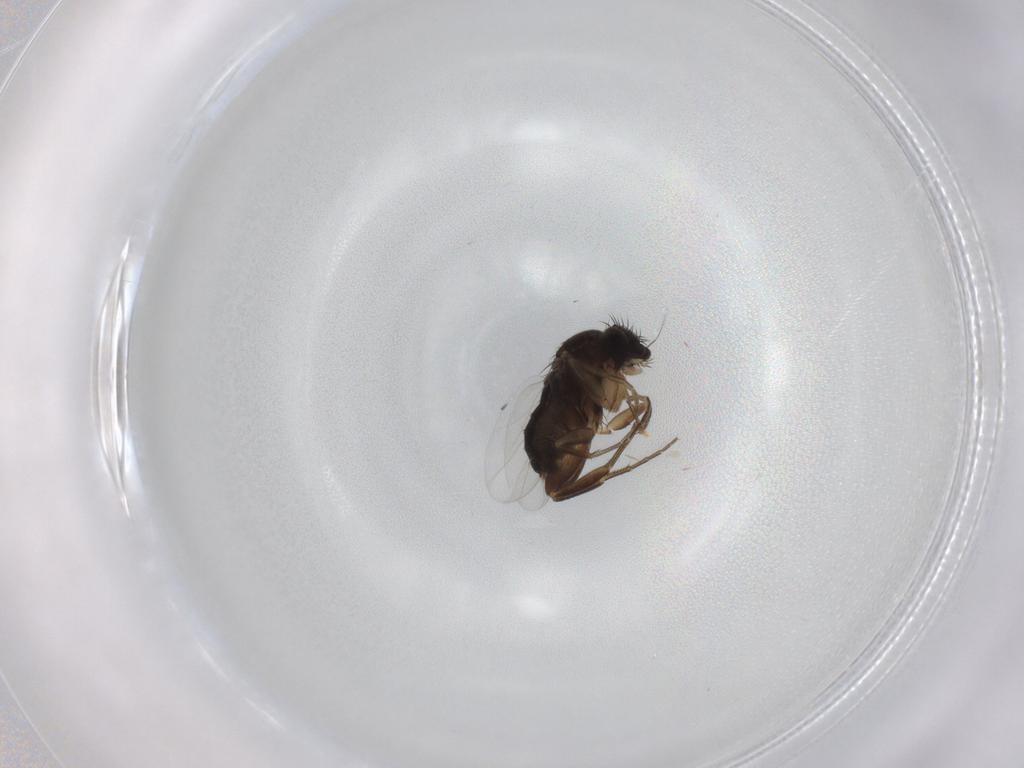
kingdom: Animalia
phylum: Arthropoda
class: Insecta
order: Diptera
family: Phoridae
